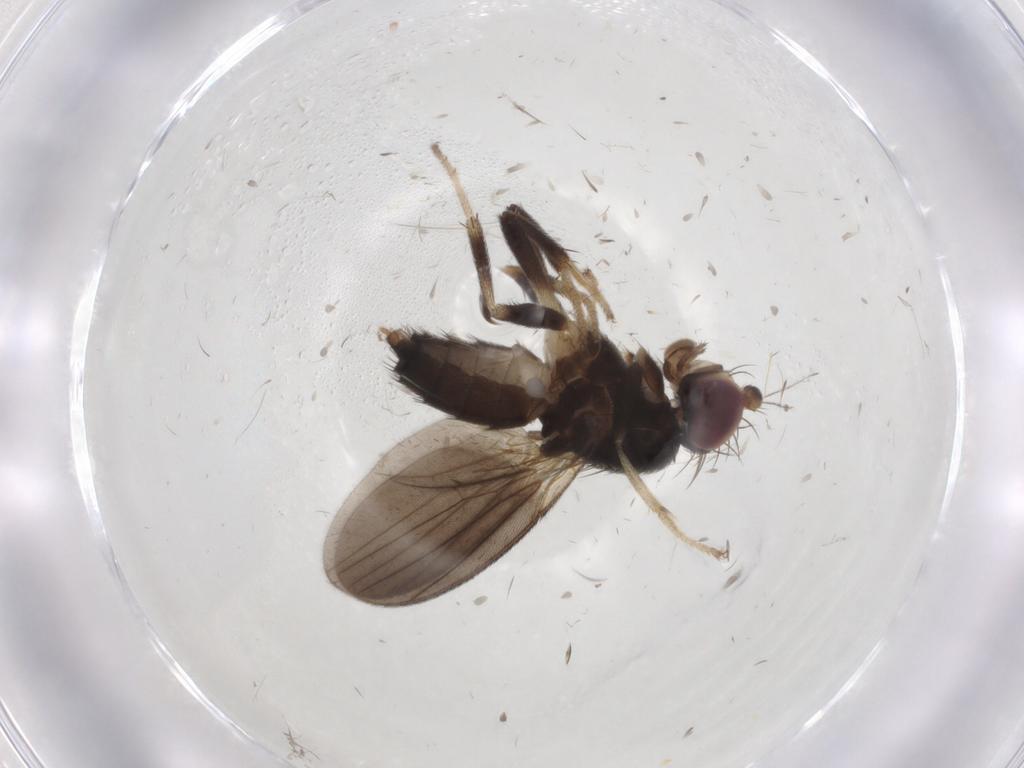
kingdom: Animalia
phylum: Arthropoda
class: Insecta
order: Diptera
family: Clusiidae
